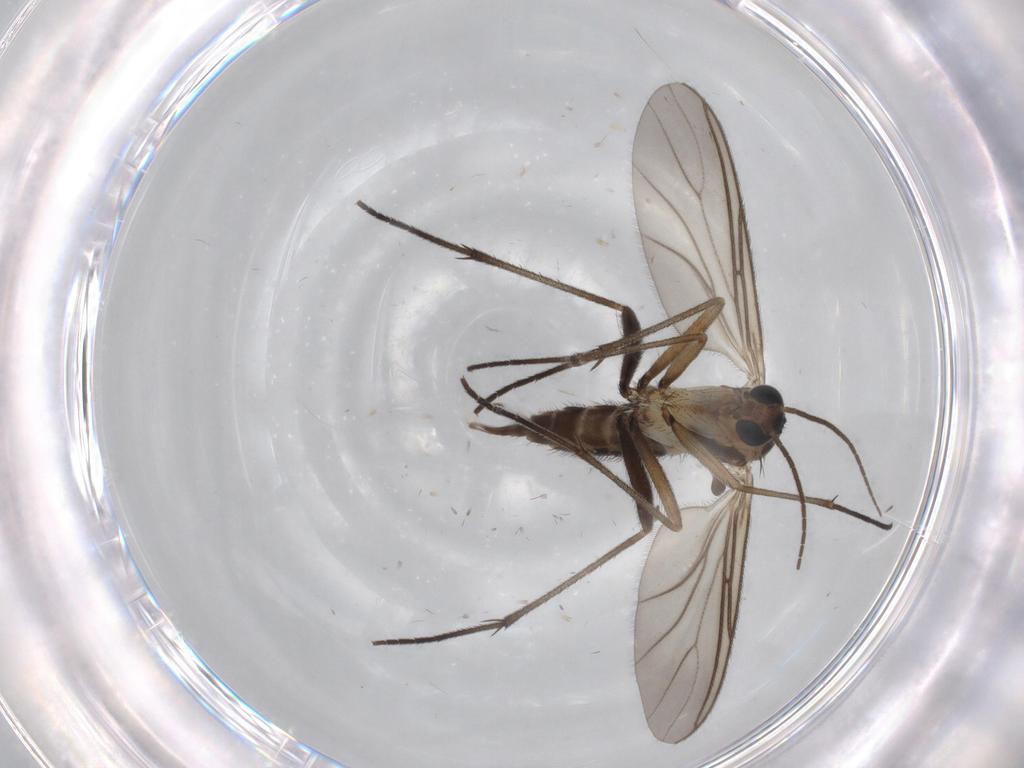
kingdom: Animalia
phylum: Arthropoda
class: Insecta
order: Diptera
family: Sciaridae
